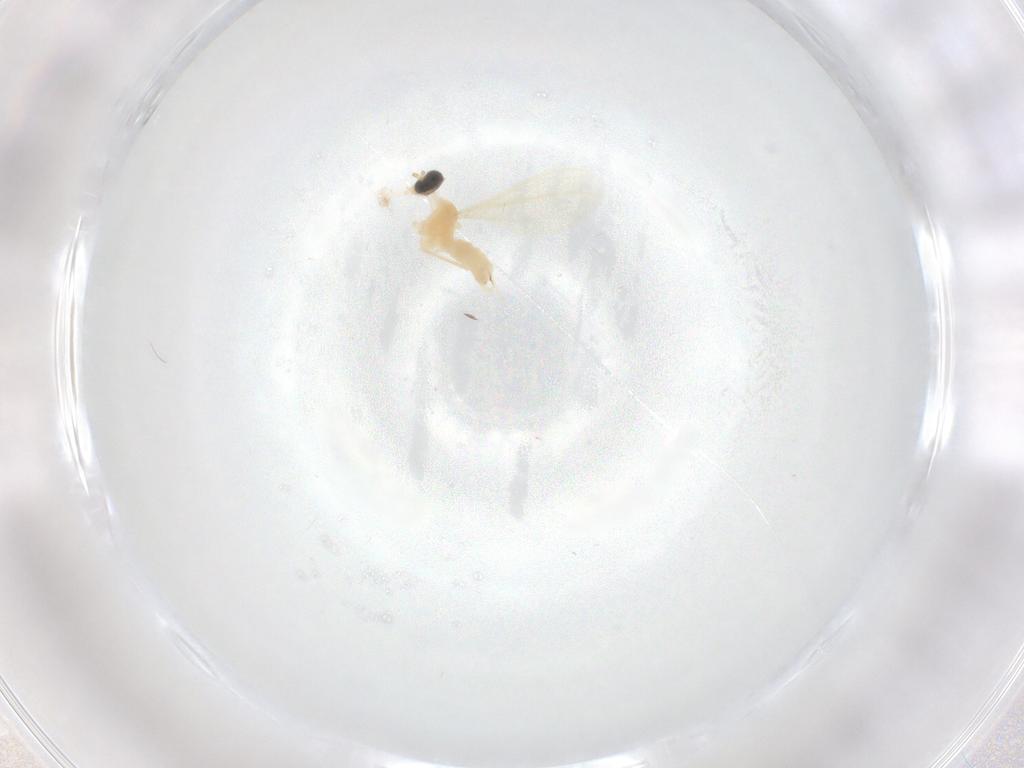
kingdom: Animalia
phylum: Arthropoda
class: Insecta
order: Diptera
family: Cecidomyiidae
